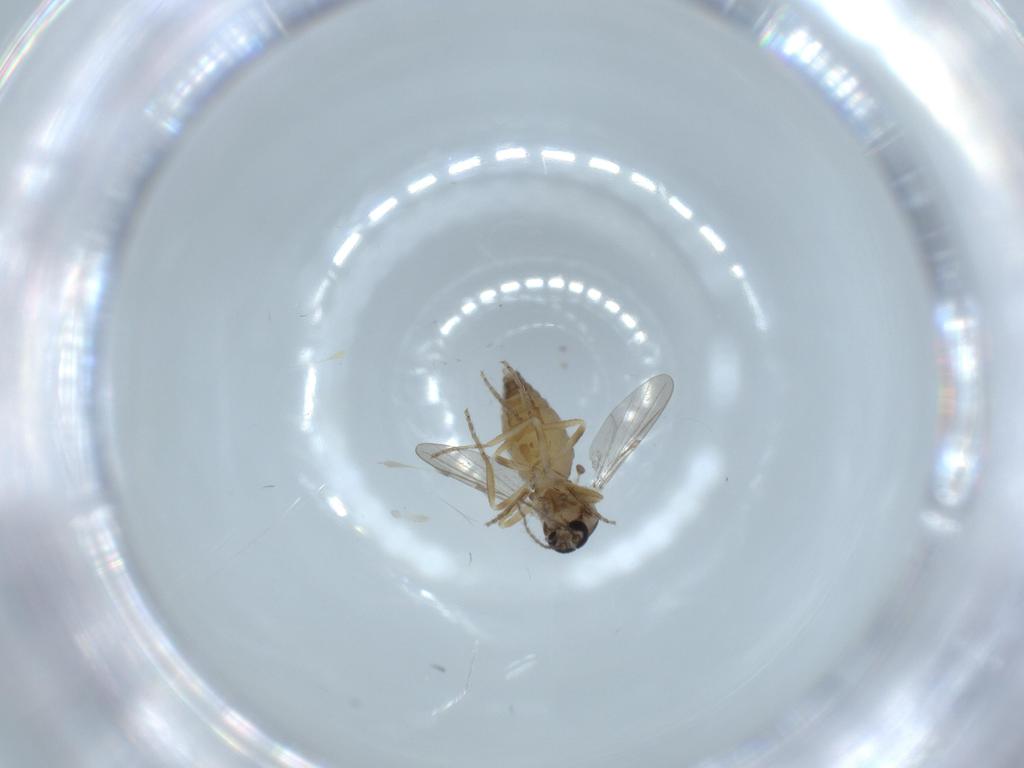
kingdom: Animalia
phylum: Arthropoda
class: Insecta
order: Diptera
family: Ceratopogonidae
